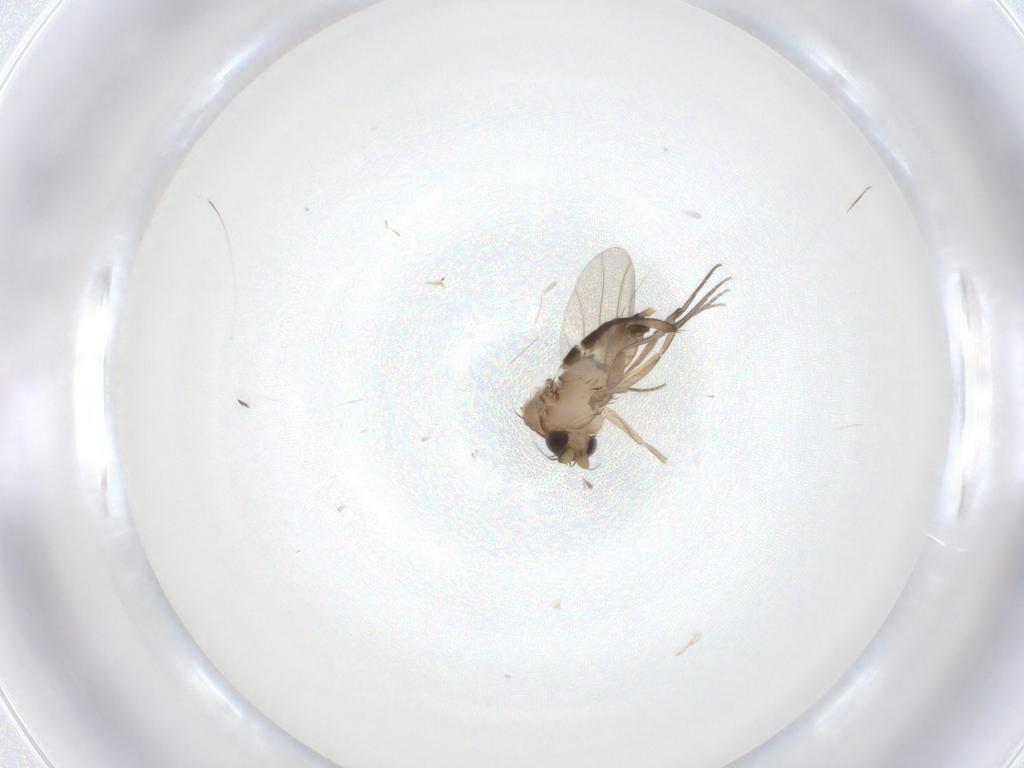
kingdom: Animalia
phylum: Arthropoda
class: Insecta
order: Diptera
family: Phoridae
